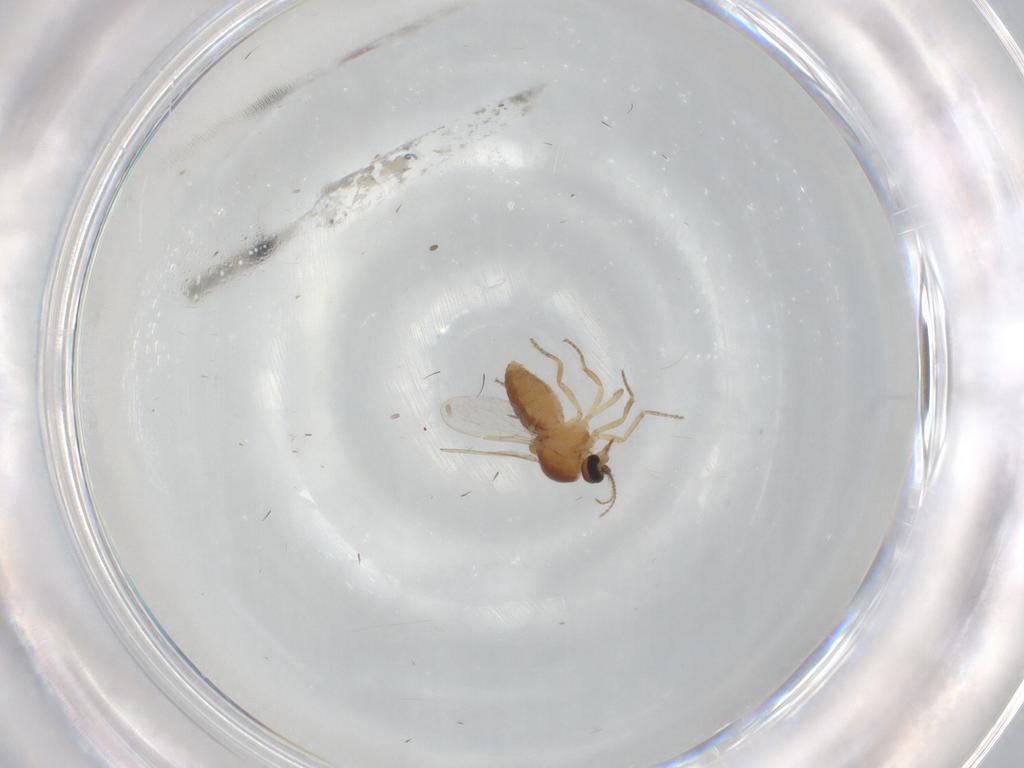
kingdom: Animalia
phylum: Arthropoda
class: Insecta
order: Diptera
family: Ceratopogonidae
